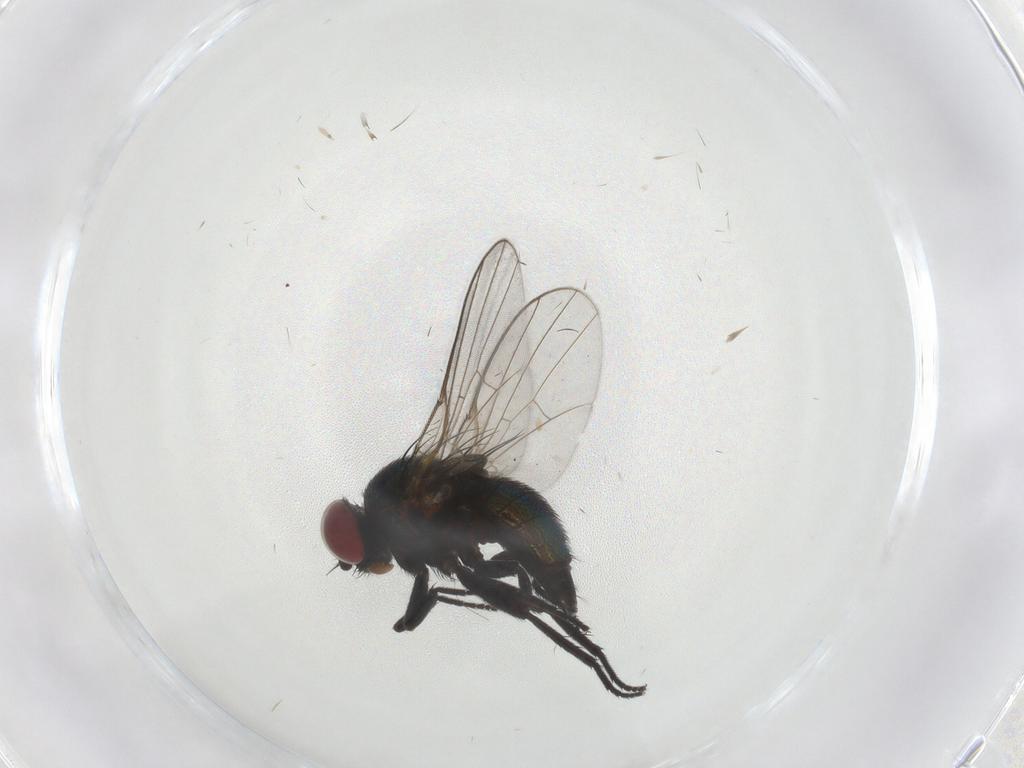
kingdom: Animalia
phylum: Arthropoda
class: Insecta
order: Diptera
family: Agromyzidae
